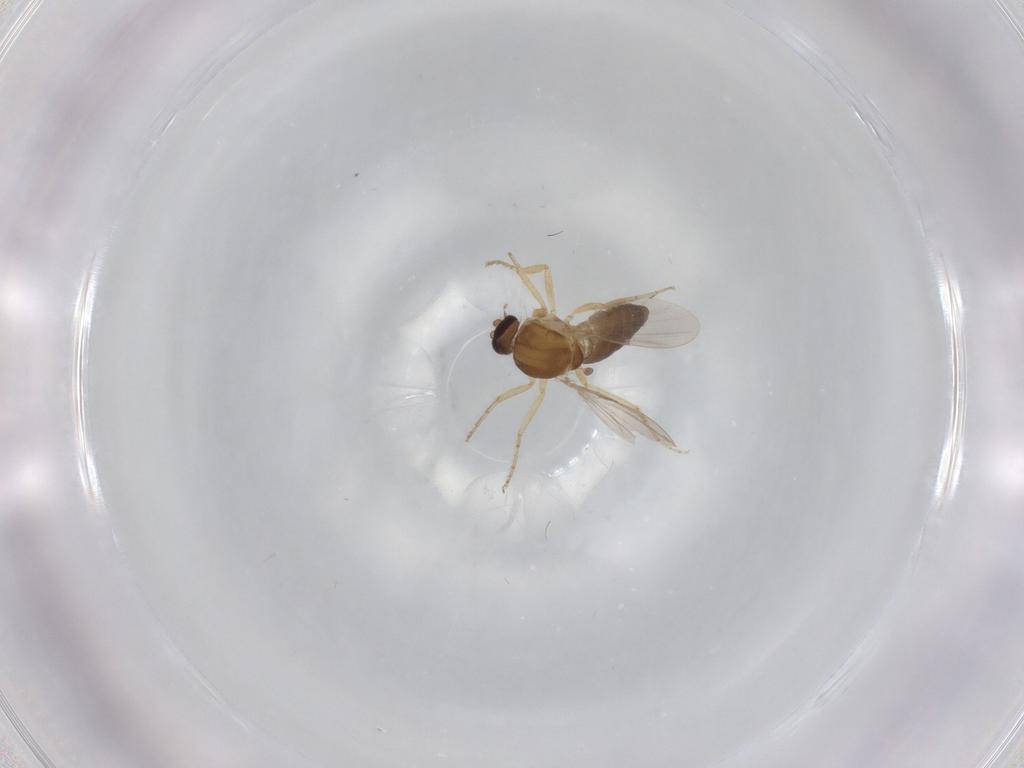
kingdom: Animalia
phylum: Arthropoda
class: Insecta
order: Diptera
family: Ceratopogonidae
